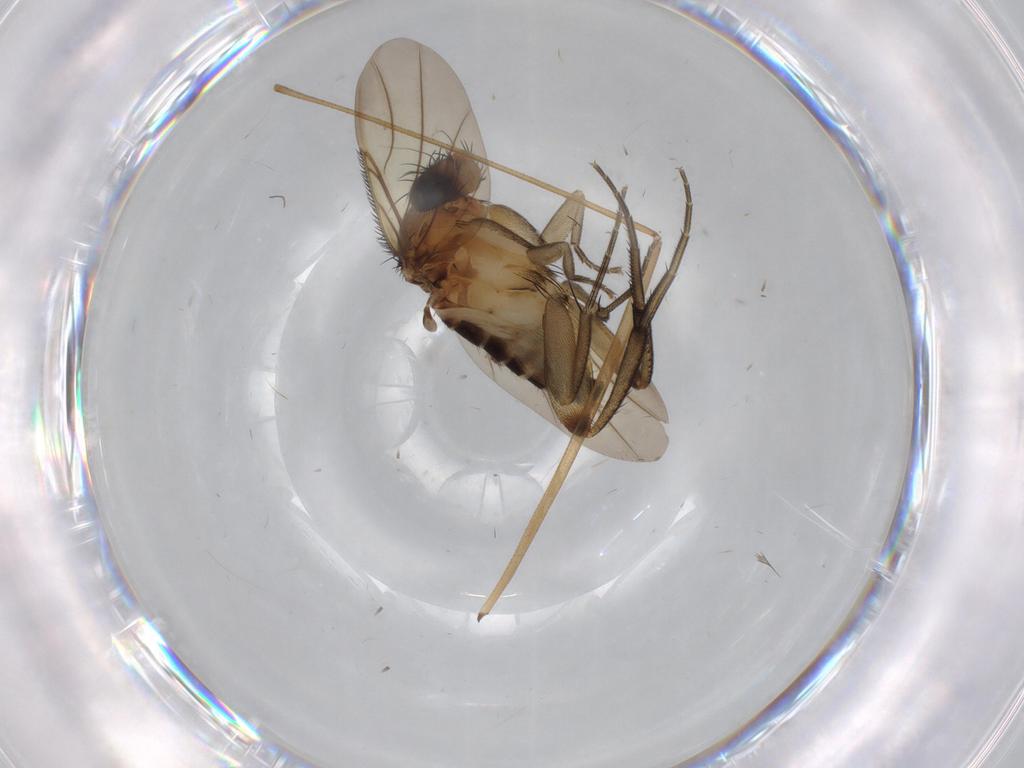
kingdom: Animalia
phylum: Arthropoda
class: Insecta
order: Diptera
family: Limoniidae
